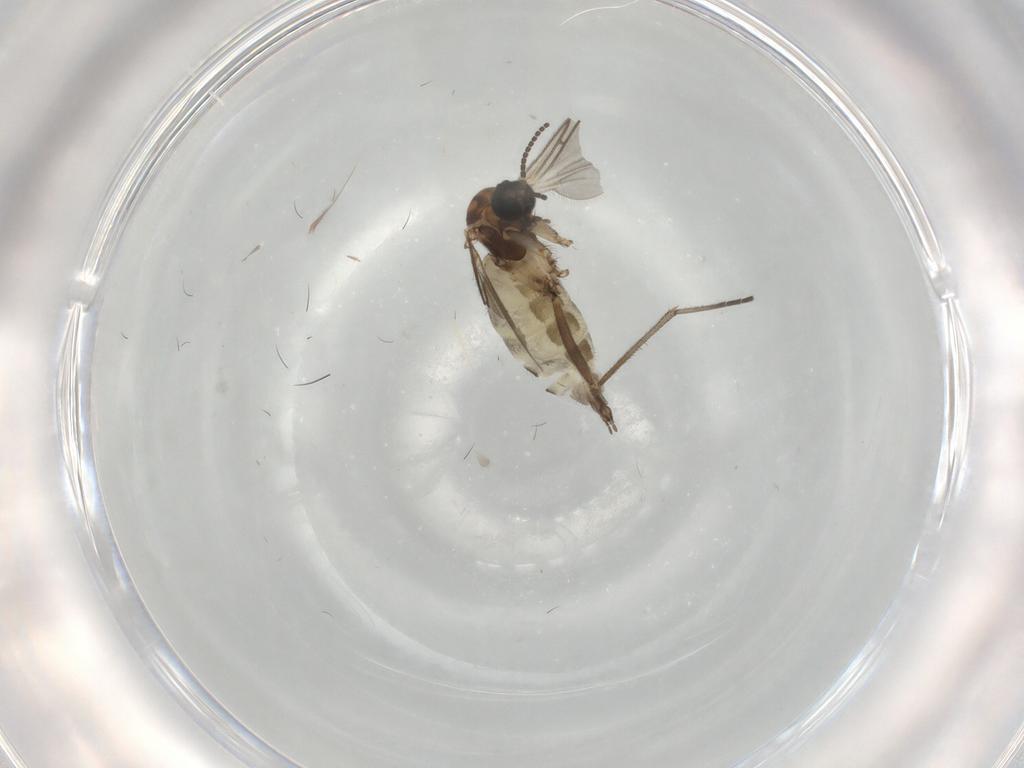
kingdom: Animalia
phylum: Arthropoda
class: Insecta
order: Diptera
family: Sciaridae
